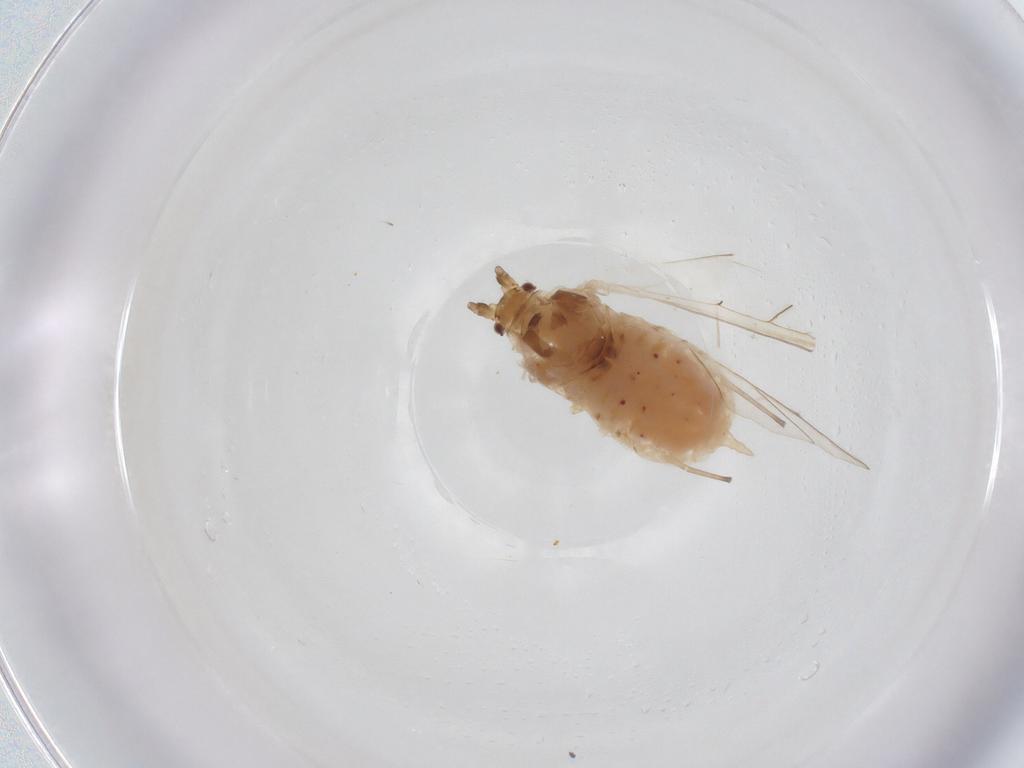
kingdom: Animalia
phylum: Arthropoda
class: Insecta
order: Hemiptera
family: Aphididae
